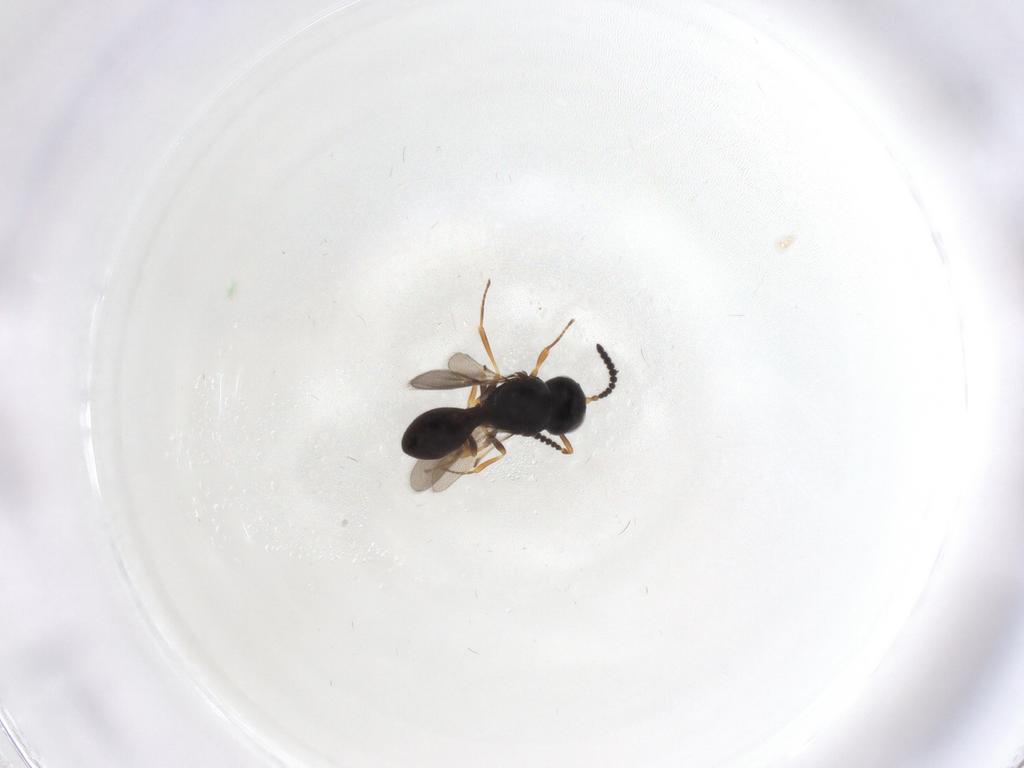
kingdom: Animalia
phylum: Arthropoda
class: Insecta
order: Hymenoptera
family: Scelionidae
